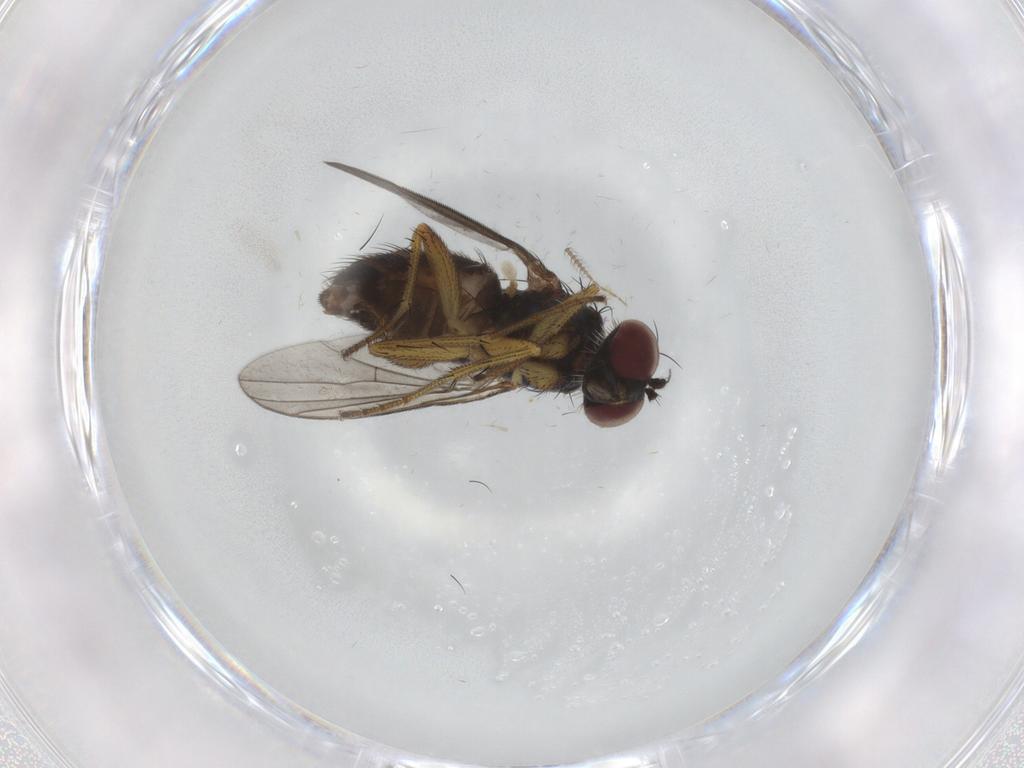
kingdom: Animalia
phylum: Arthropoda
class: Insecta
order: Diptera
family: Dolichopodidae
